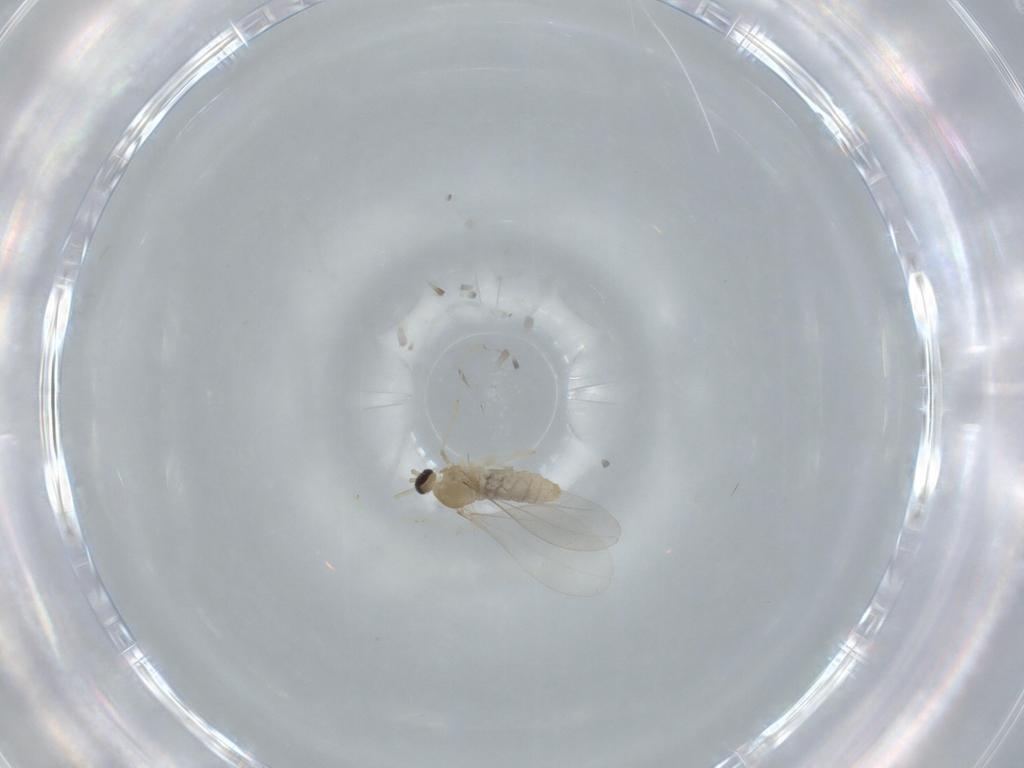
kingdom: Animalia
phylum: Arthropoda
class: Insecta
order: Diptera
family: Cecidomyiidae
